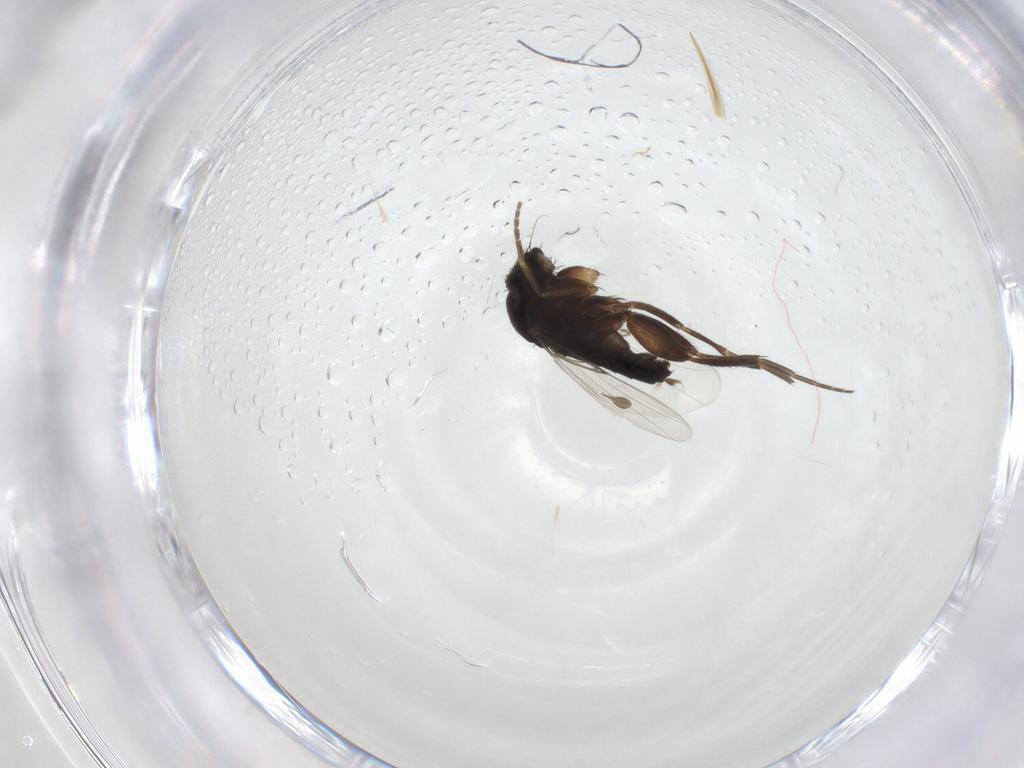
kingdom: Animalia
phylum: Arthropoda
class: Insecta
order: Diptera
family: Phoridae
